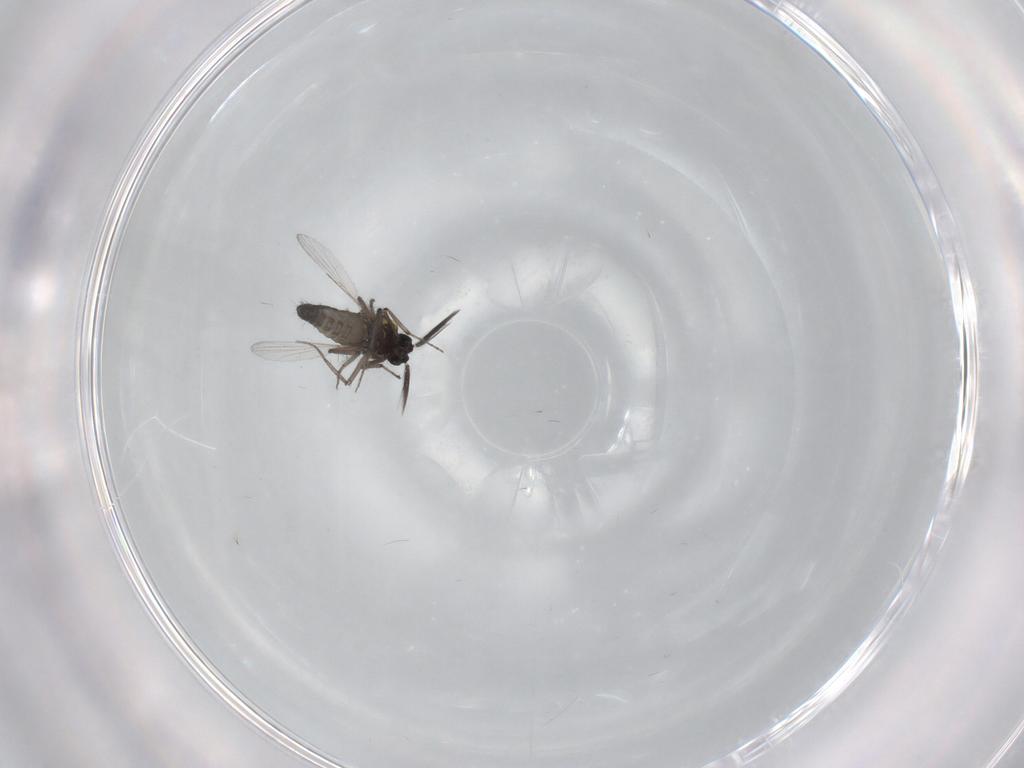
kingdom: Animalia
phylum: Arthropoda
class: Insecta
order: Diptera
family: Ceratopogonidae
